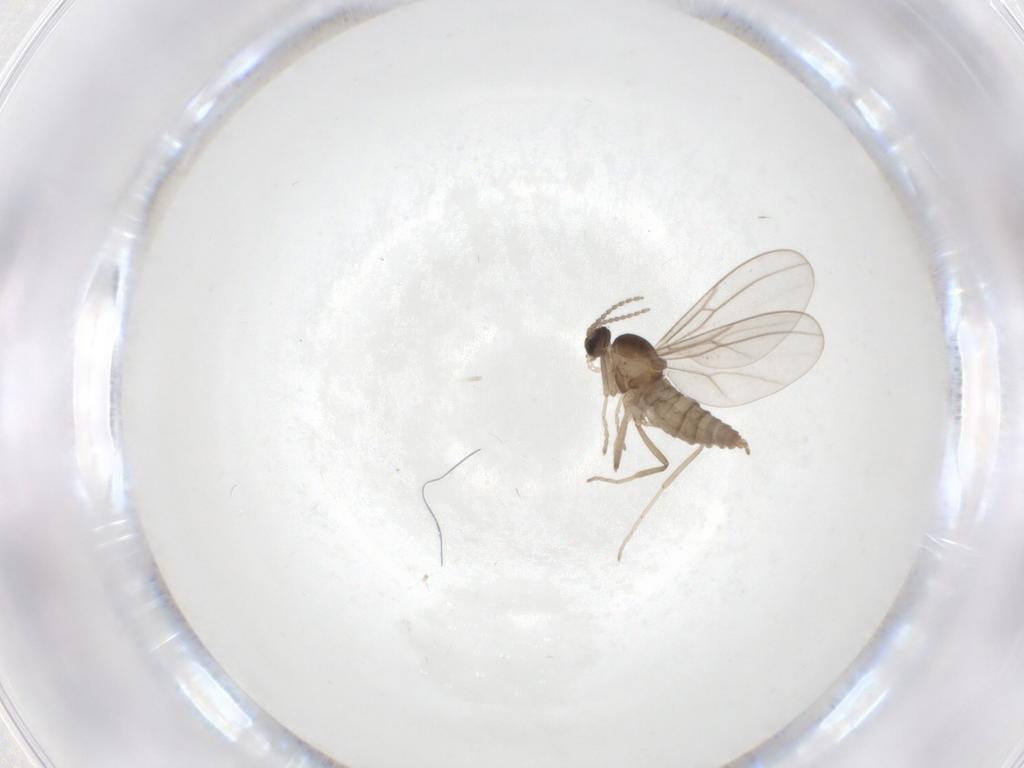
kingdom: Animalia
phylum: Arthropoda
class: Insecta
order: Diptera
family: Cecidomyiidae
